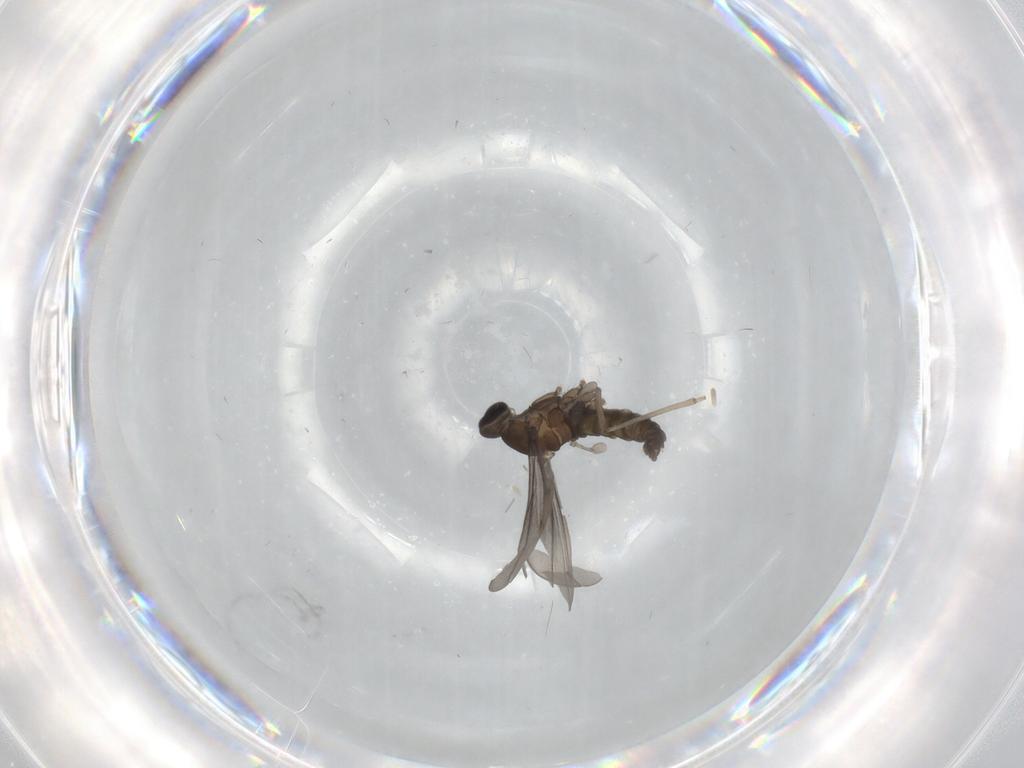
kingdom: Animalia
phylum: Arthropoda
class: Insecta
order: Diptera
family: Cecidomyiidae
